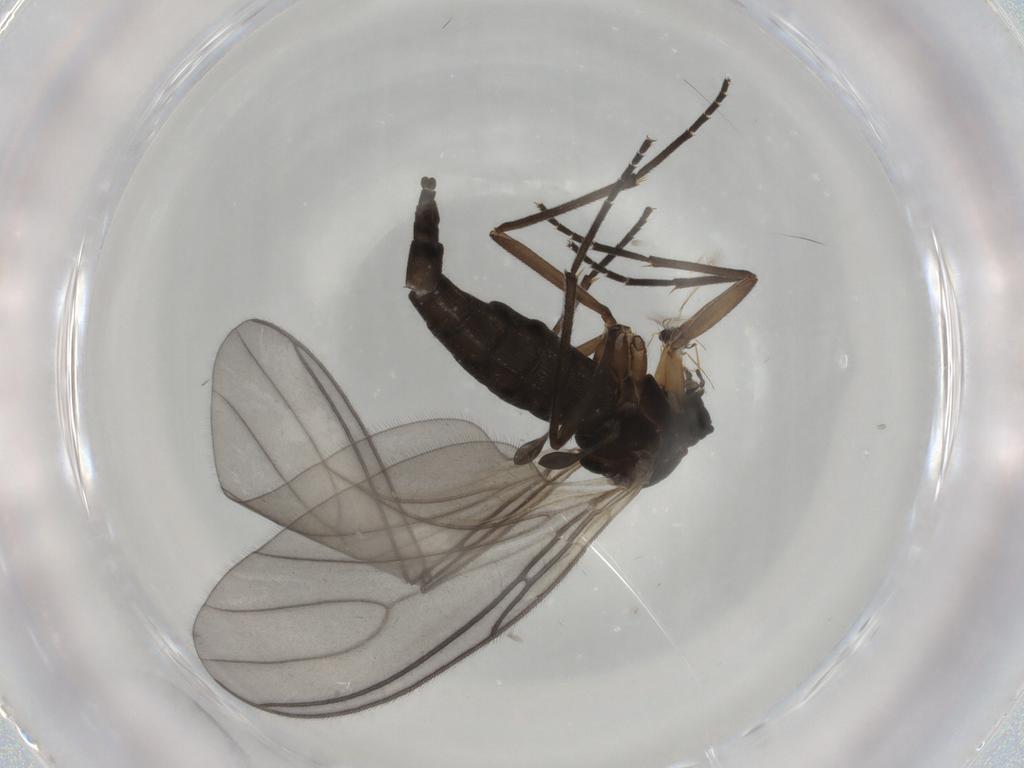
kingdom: Animalia
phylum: Arthropoda
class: Insecta
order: Diptera
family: Sciaridae
